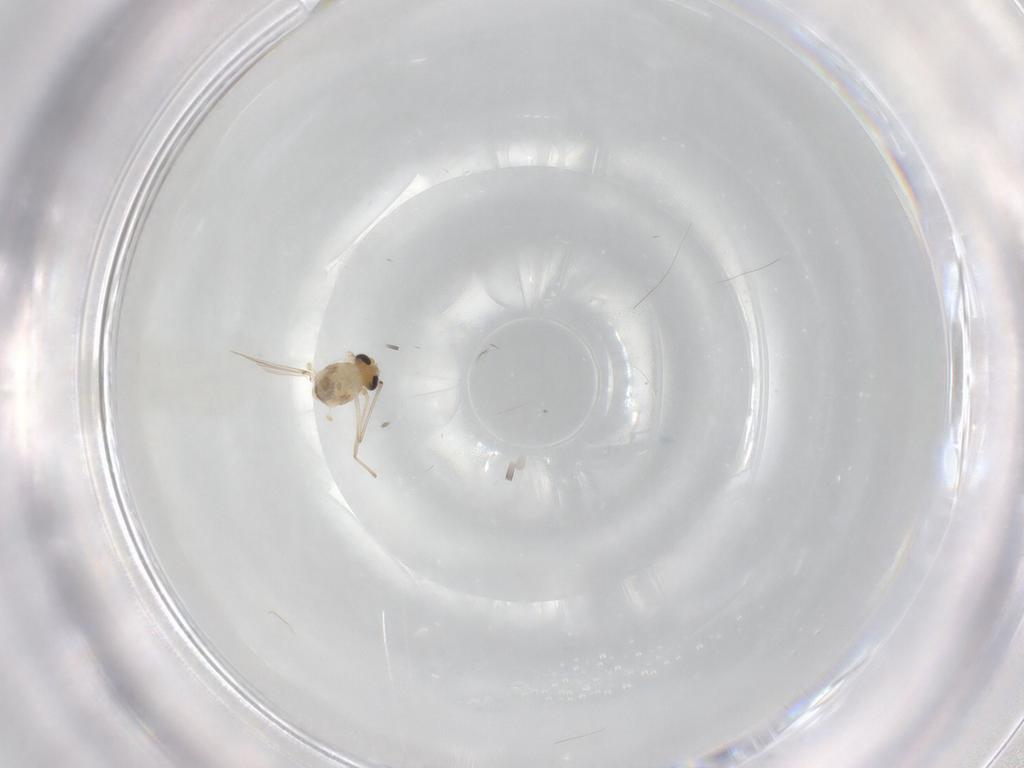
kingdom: Animalia
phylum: Arthropoda
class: Insecta
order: Diptera
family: Chironomidae
